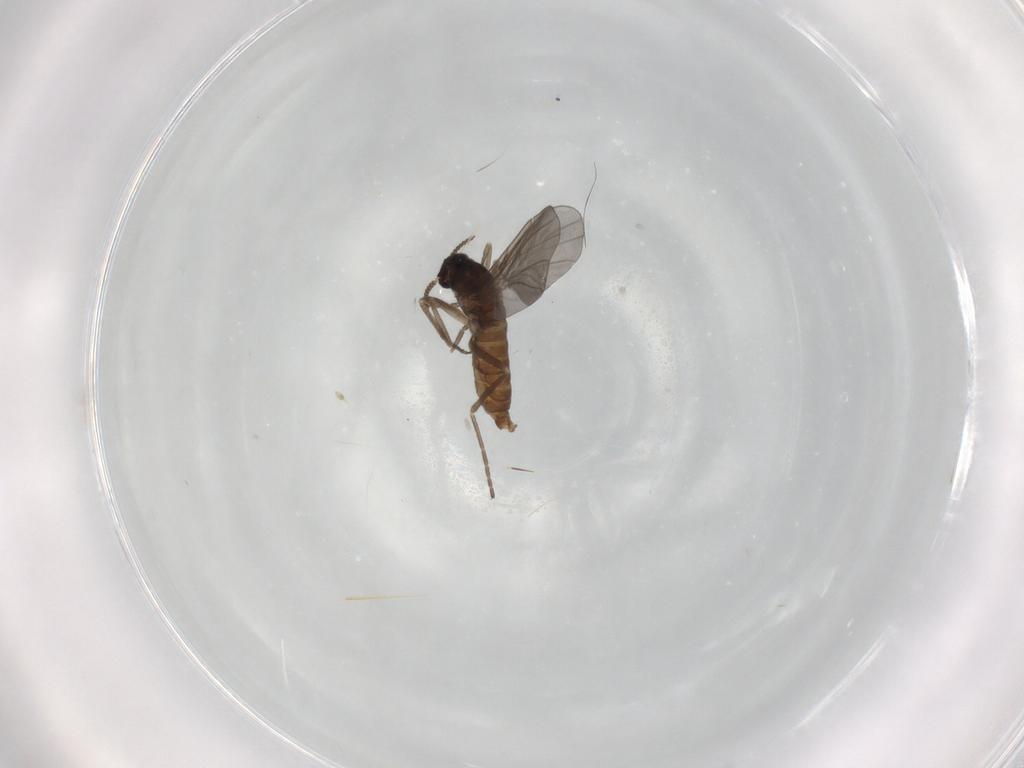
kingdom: Animalia
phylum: Arthropoda
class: Insecta
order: Diptera
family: Cecidomyiidae
